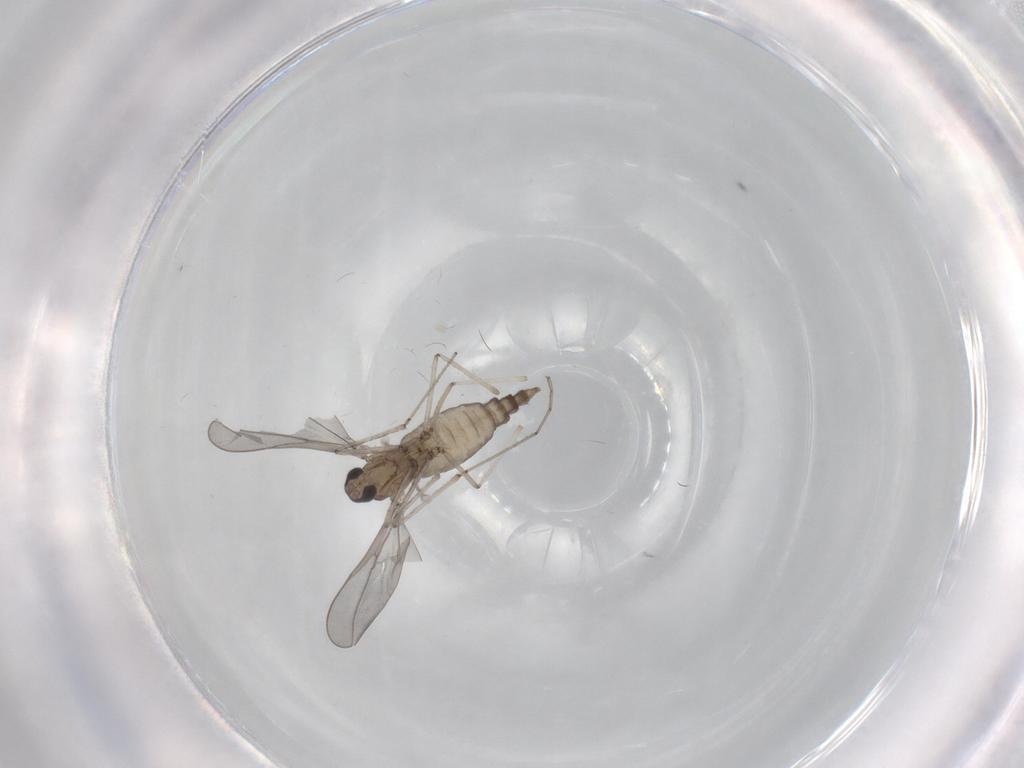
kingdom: Animalia
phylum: Arthropoda
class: Insecta
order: Diptera
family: Cecidomyiidae
